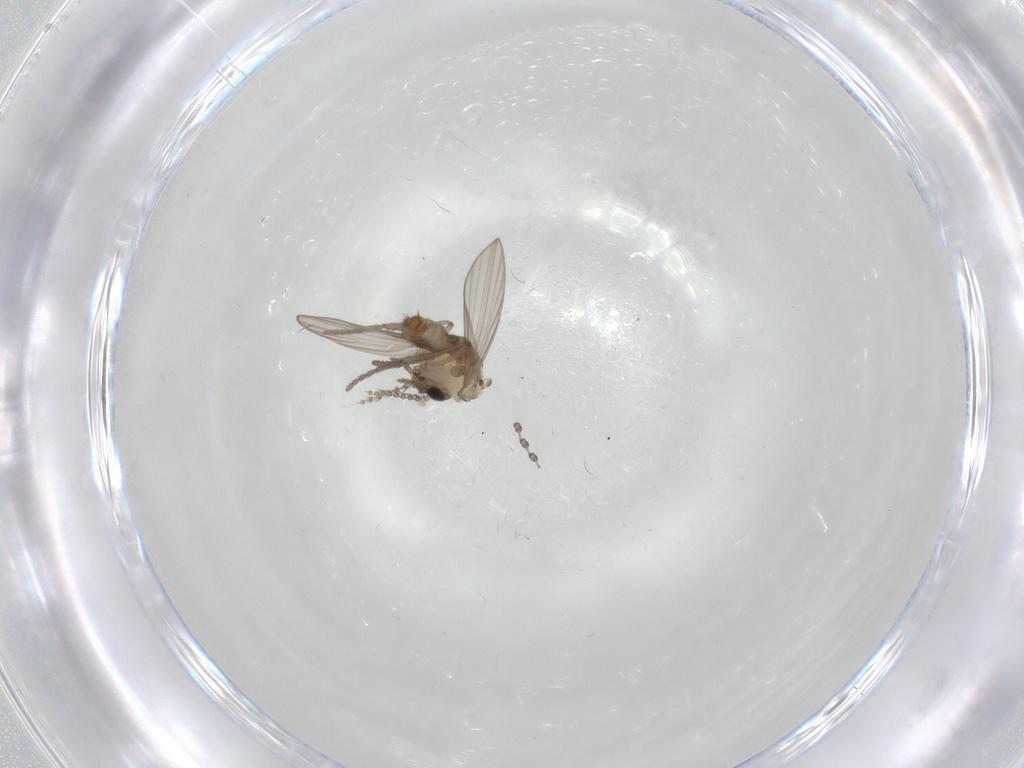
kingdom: Animalia
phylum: Arthropoda
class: Insecta
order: Diptera
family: Psychodidae
